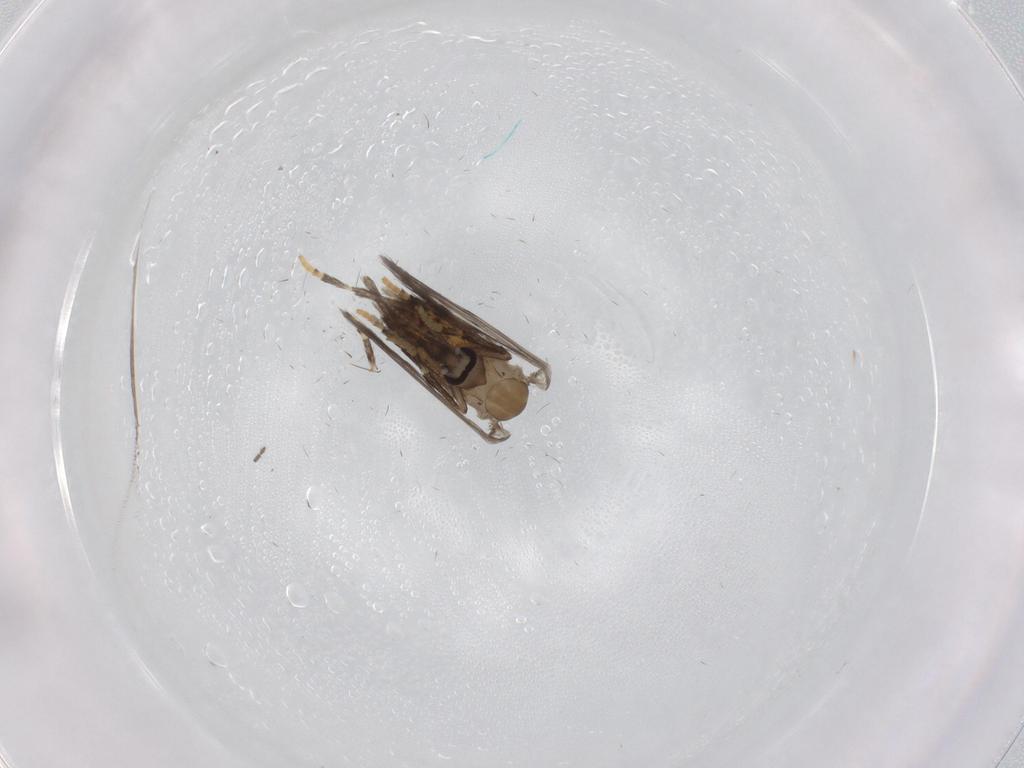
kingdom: Animalia
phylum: Arthropoda
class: Insecta
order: Diptera
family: Psychodidae
